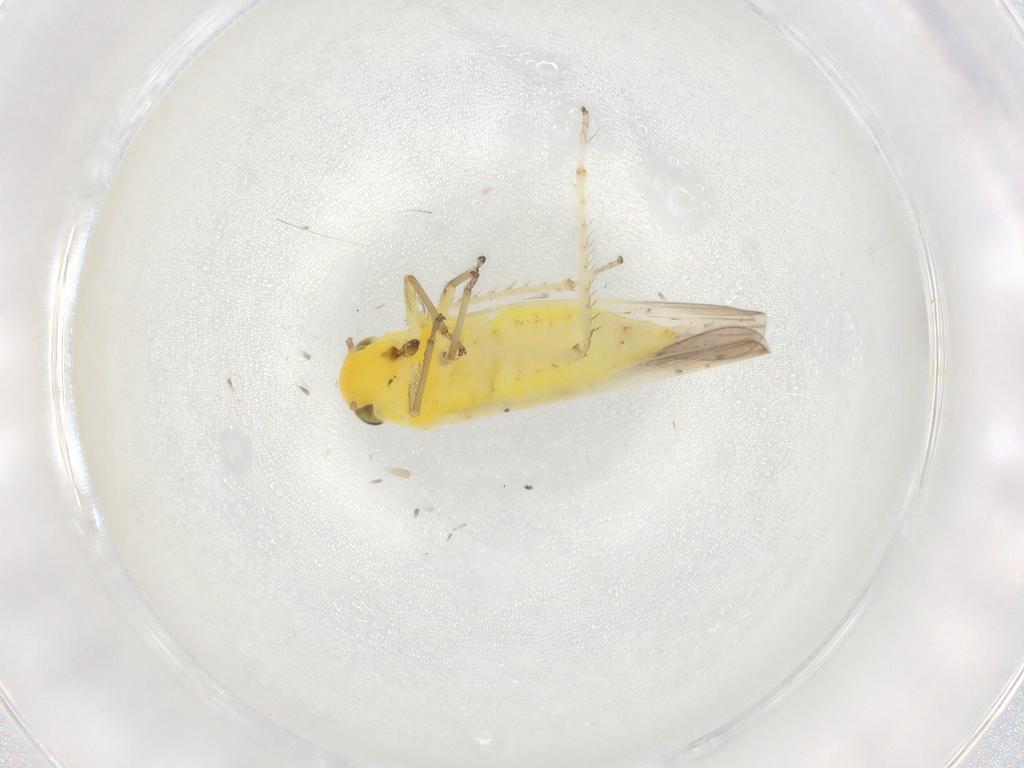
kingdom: Animalia
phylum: Arthropoda
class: Insecta
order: Hemiptera
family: Cicadellidae
